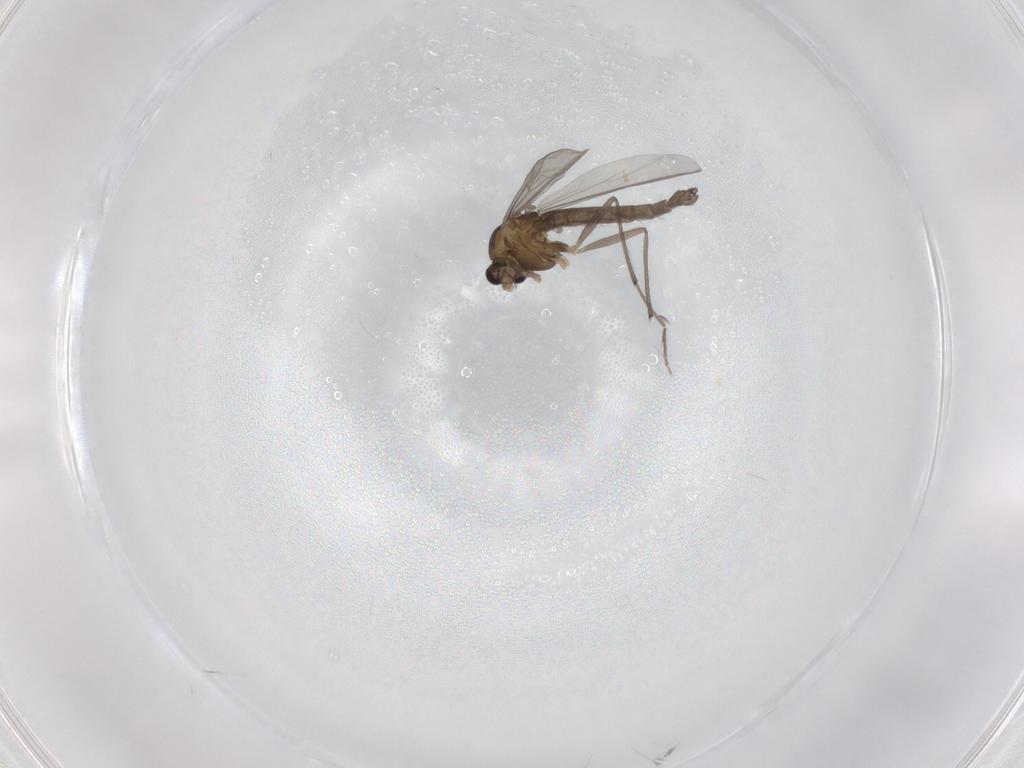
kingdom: Animalia
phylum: Arthropoda
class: Insecta
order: Diptera
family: Chironomidae
